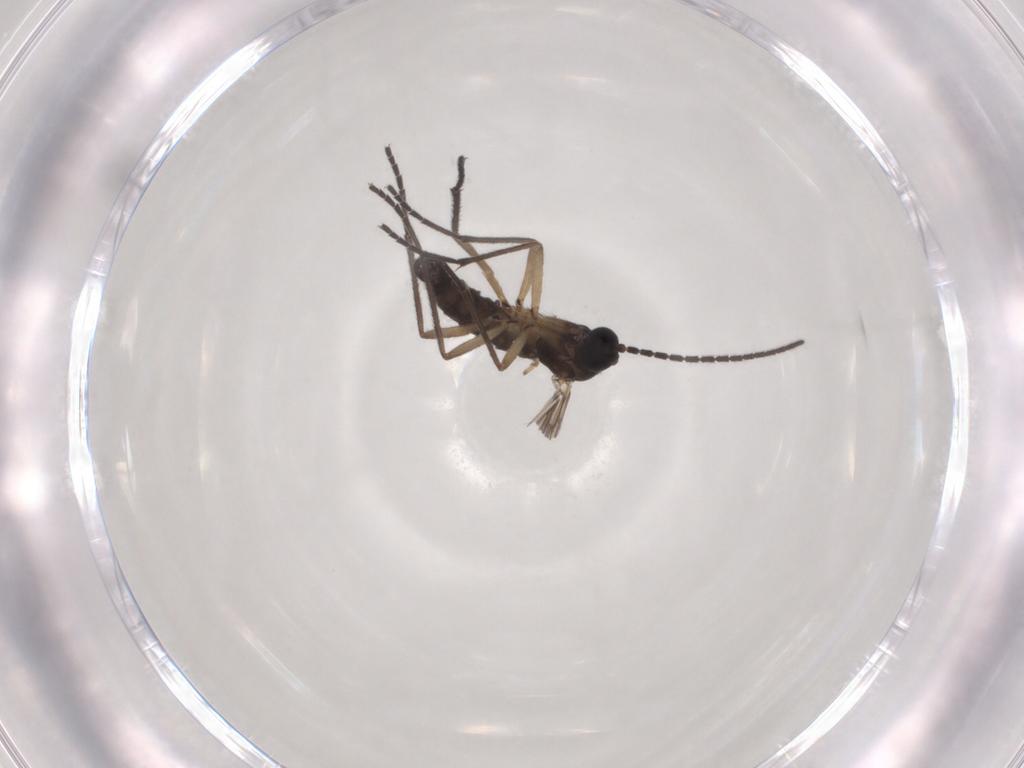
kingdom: Animalia
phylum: Arthropoda
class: Insecta
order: Diptera
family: Sciaridae
